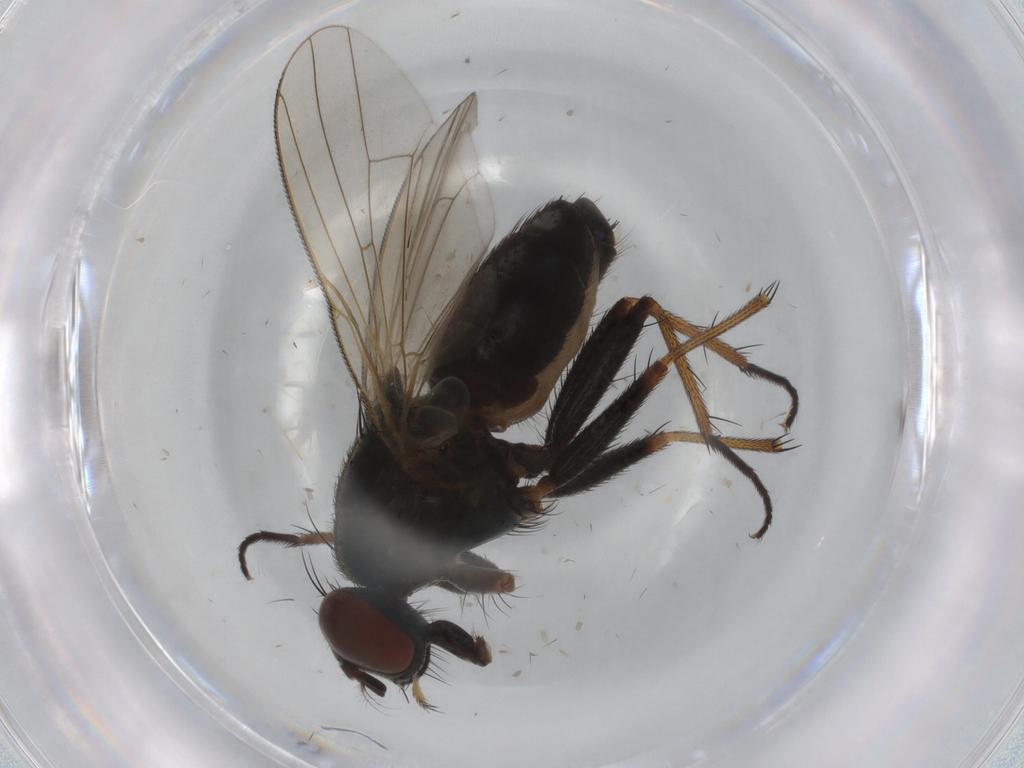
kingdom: Animalia
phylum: Arthropoda
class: Insecta
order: Diptera
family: Muscidae
